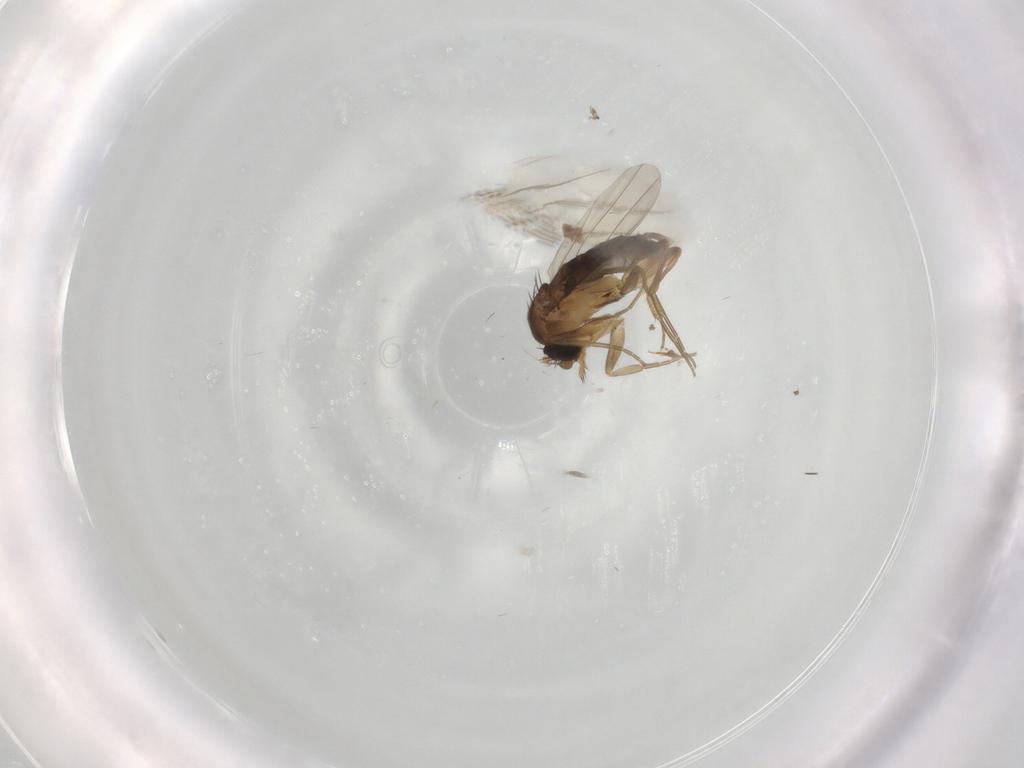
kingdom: Animalia
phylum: Arthropoda
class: Insecta
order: Diptera
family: Phoridae
